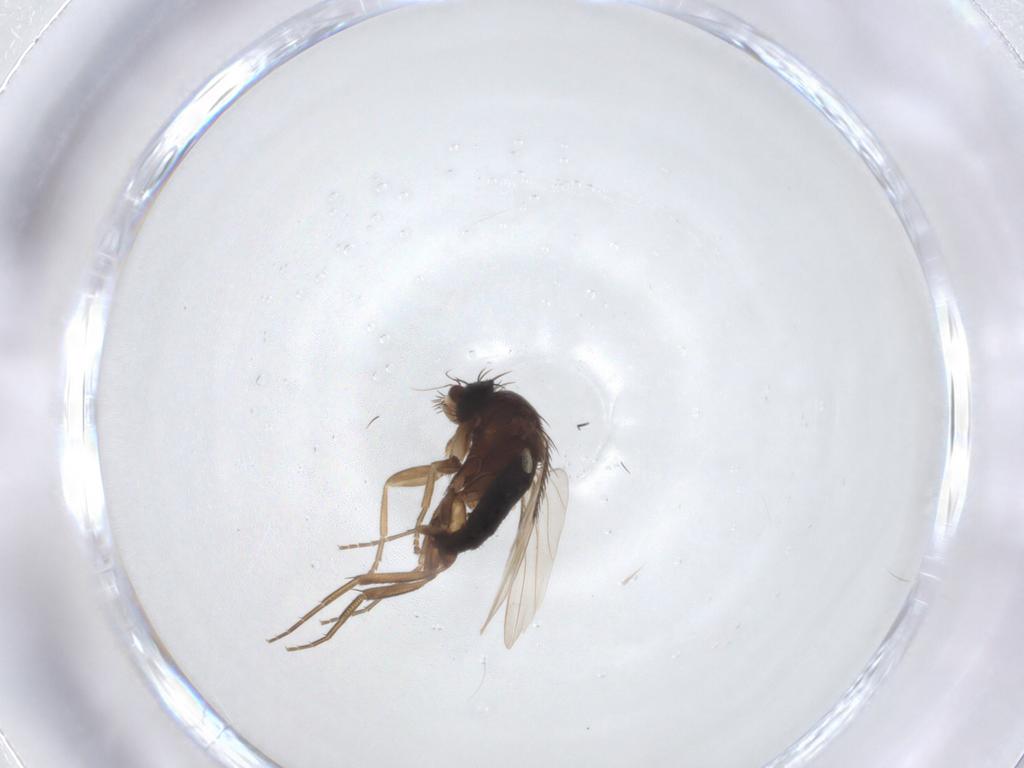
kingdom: Animalia
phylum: Arthropoda
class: Insecta
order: Diptera
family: Phoridae
